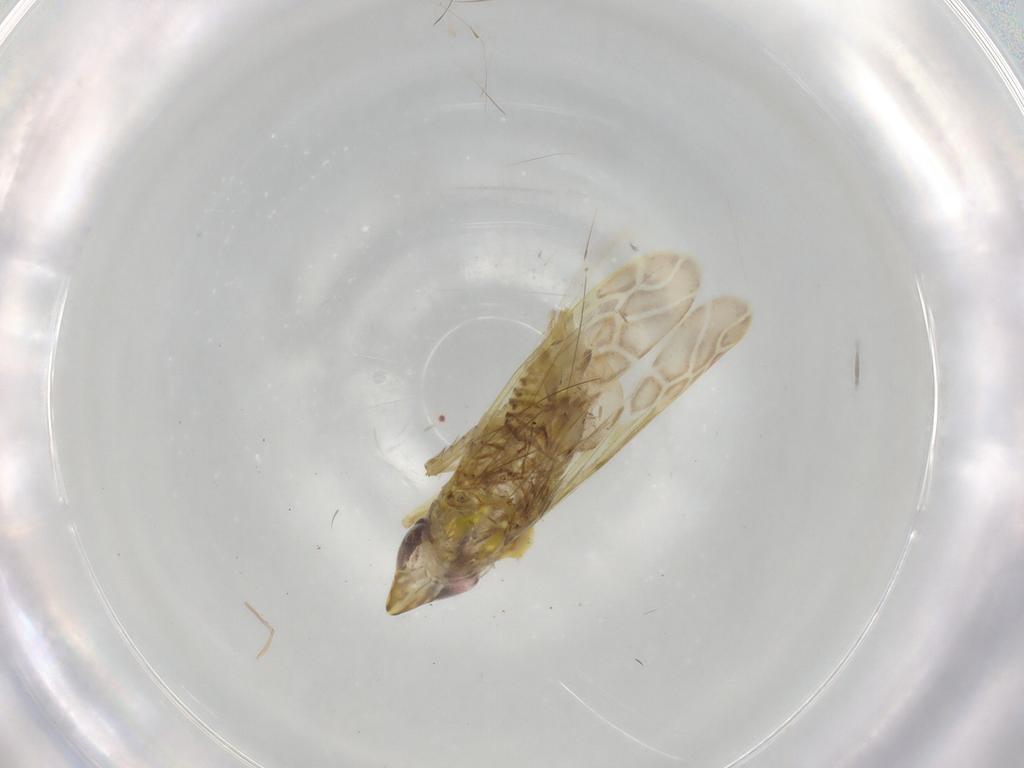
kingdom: Animalia
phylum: Arthropoda
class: Insecta
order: Hemiptera
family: Cicadellidae
